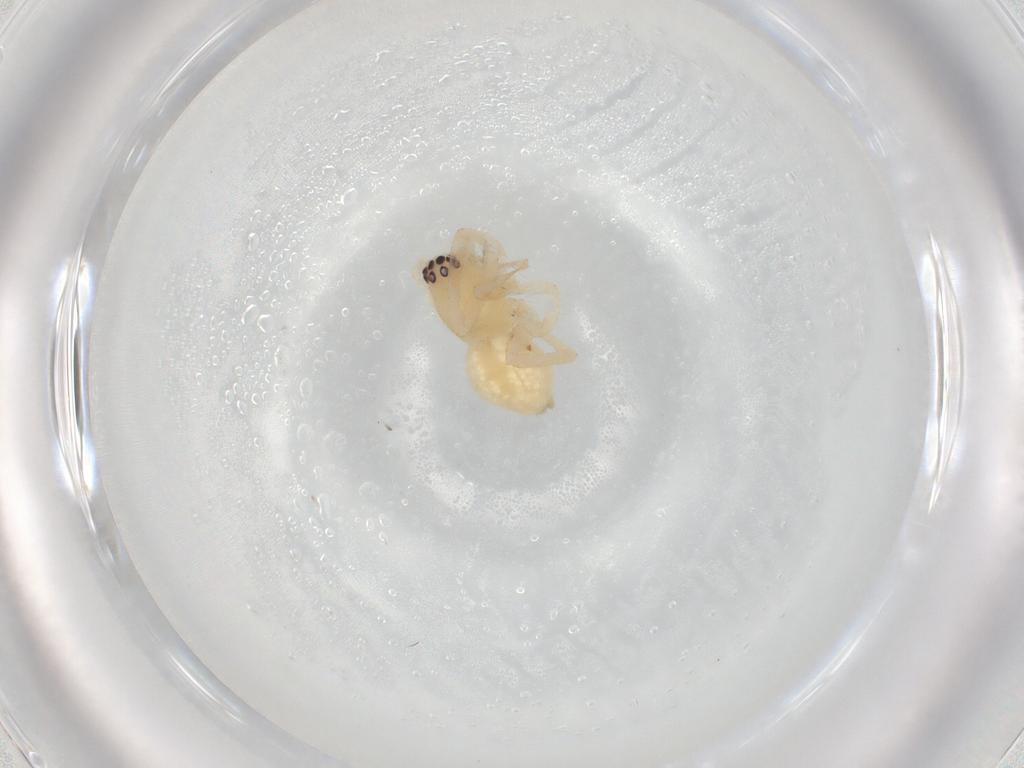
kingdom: Animalia
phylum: Arthropoda
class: Arachnida
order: Araneae
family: Cheiracanthiidae
